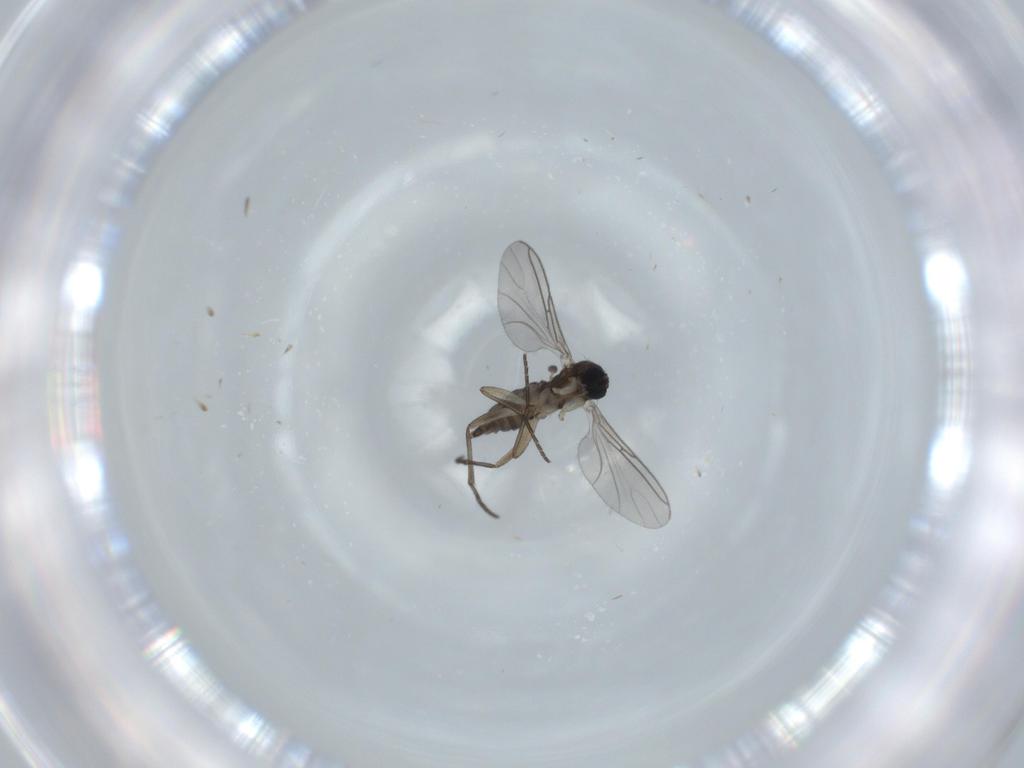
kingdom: Animalia
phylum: Arthropoda
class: Insecta
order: Diptera
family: Sciaridae
